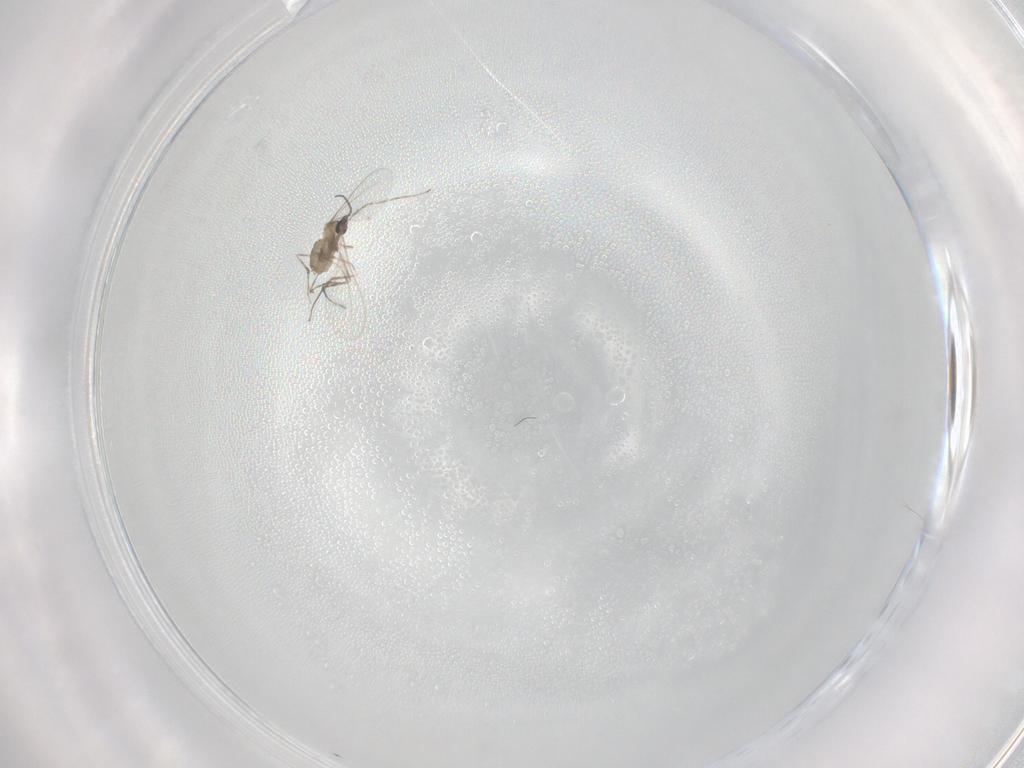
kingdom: Animalia
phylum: Arthropoda
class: Insecta
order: Diptera
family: Cecidomyiidae
